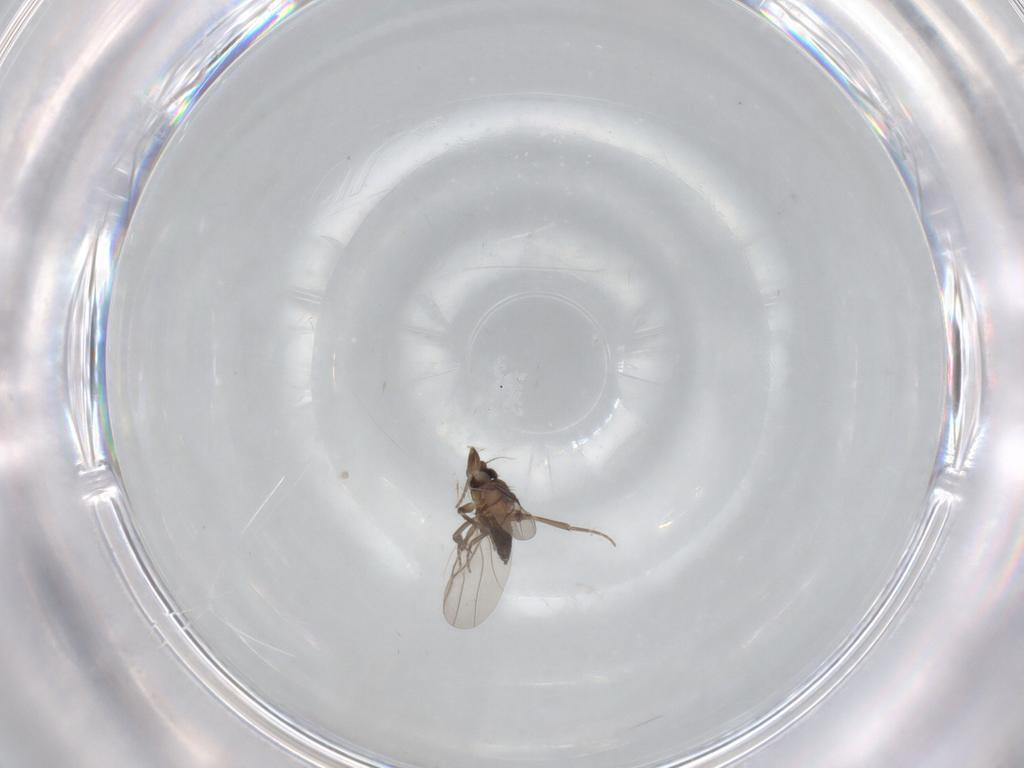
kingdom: Animalia
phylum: Arthropoda
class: Insecta
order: Diptera
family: Phoridae
